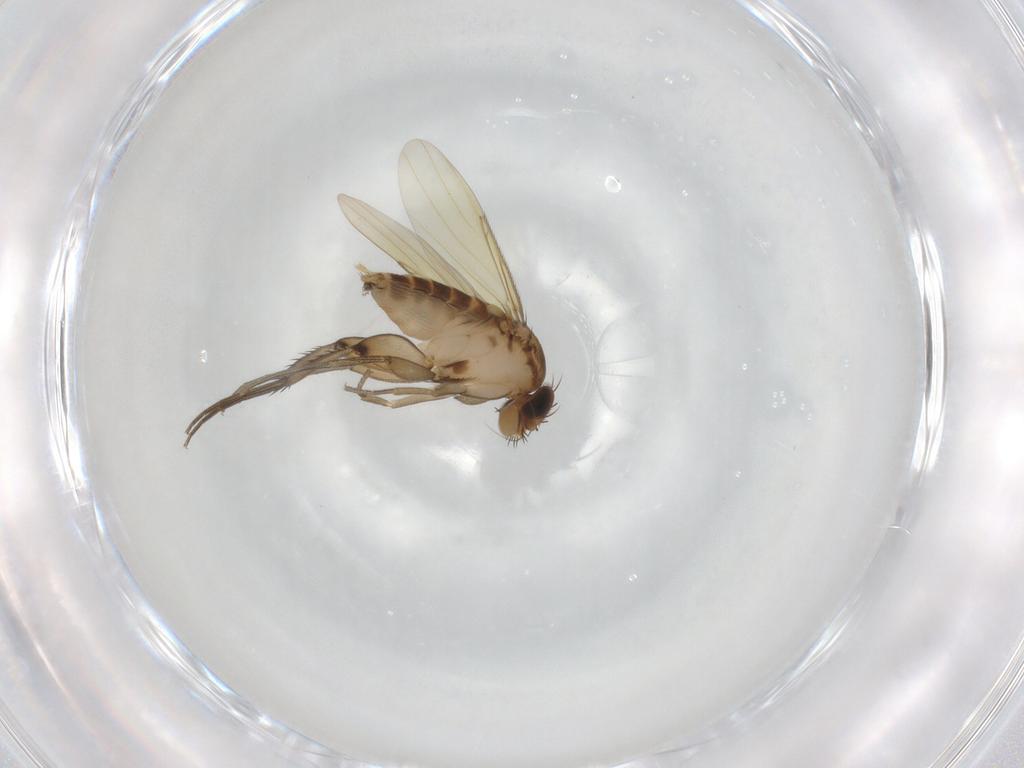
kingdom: Animalia
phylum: Arthropoda
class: Insecta
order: Diptera
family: Phoridae
